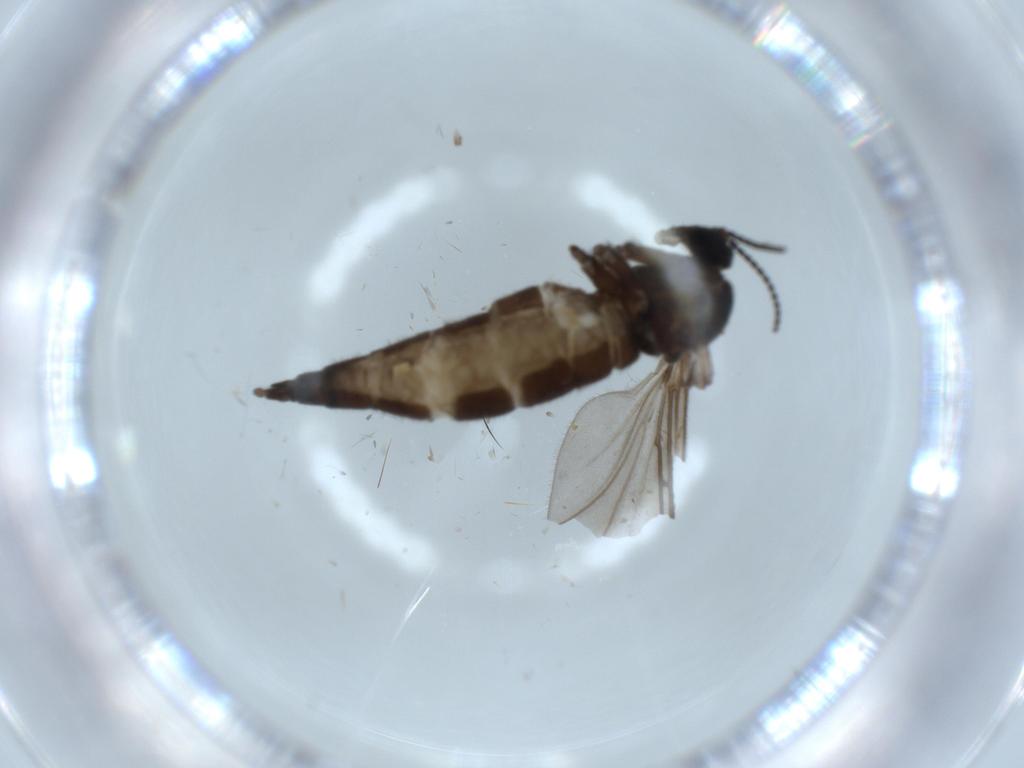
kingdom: Animalia
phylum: Arthropoda
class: Insecta
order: Diptera
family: Sciaridae
